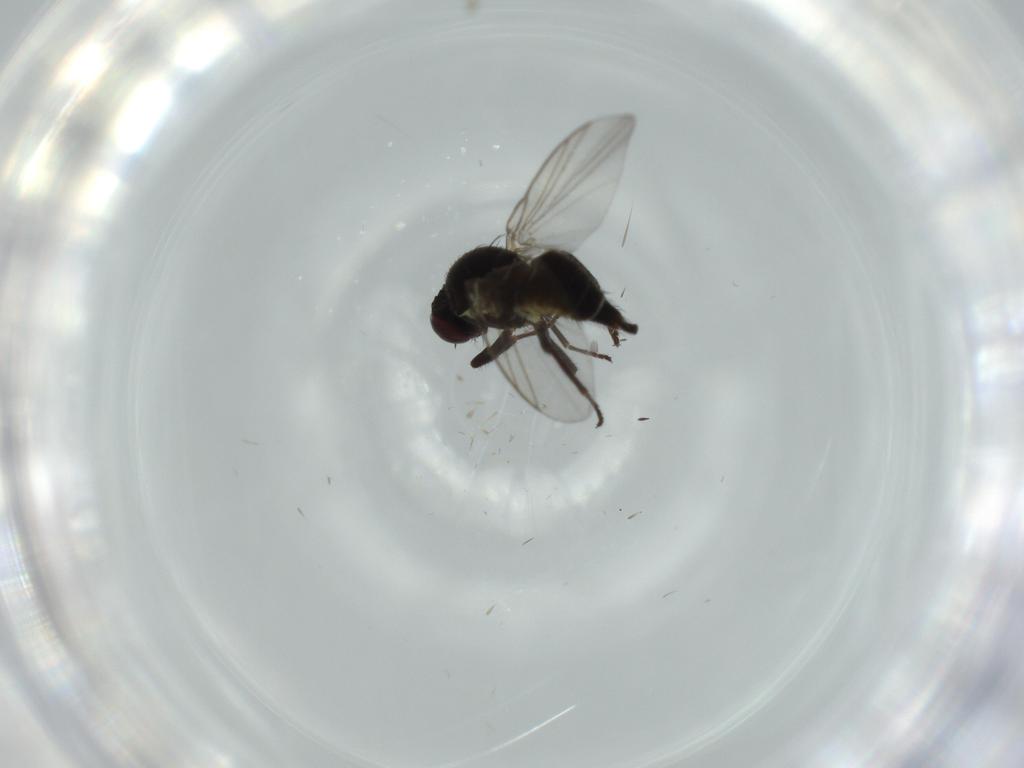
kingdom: Animalia
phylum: Arthropoda
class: Insecta
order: Diptera
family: Agromyzidae
